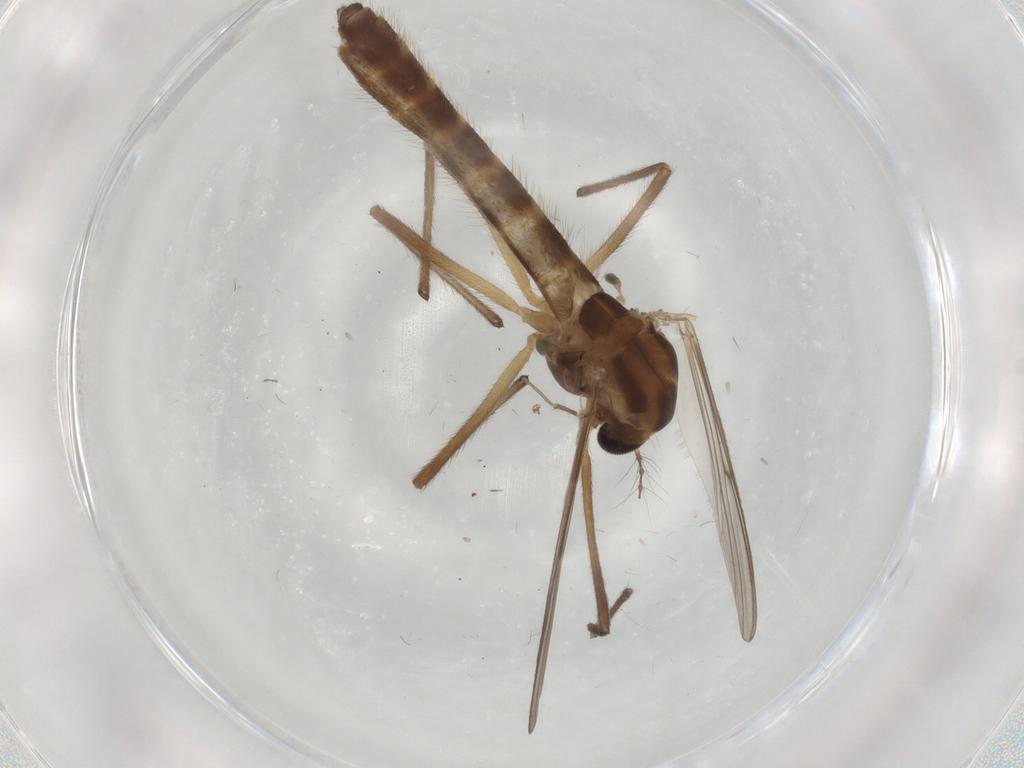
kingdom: Animalia
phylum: Arthropoda
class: Insecta
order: Diptera
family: Chironomidae
